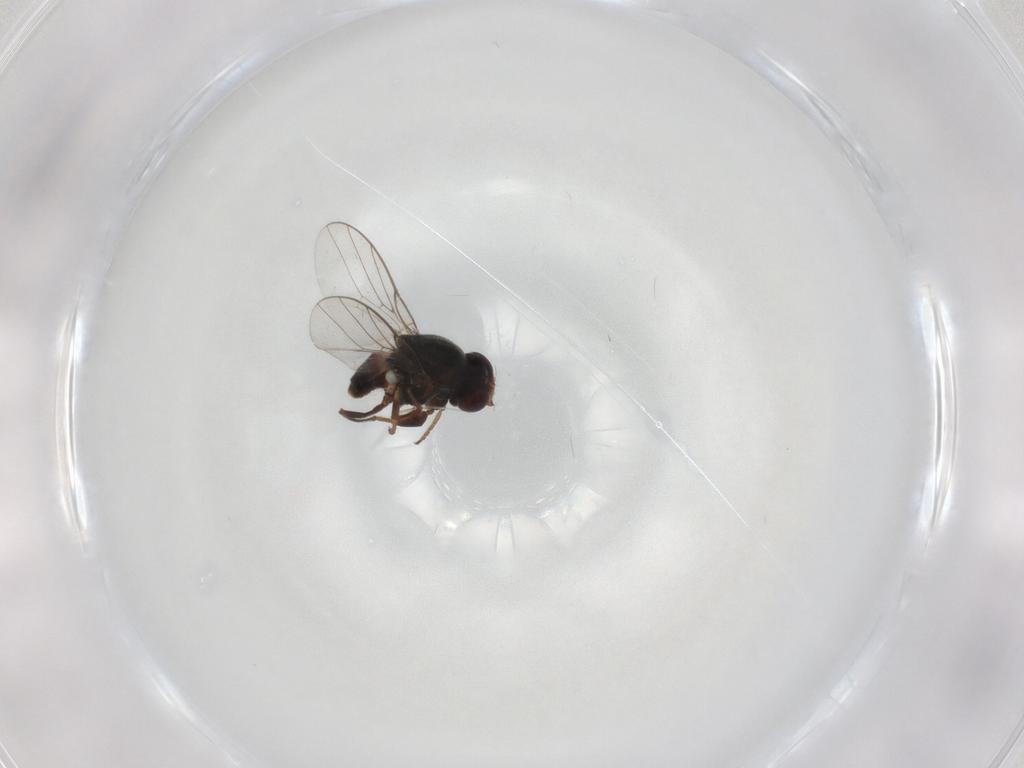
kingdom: Animalia
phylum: Arthropoda
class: Insecta
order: Diptera
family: Chloropidae
